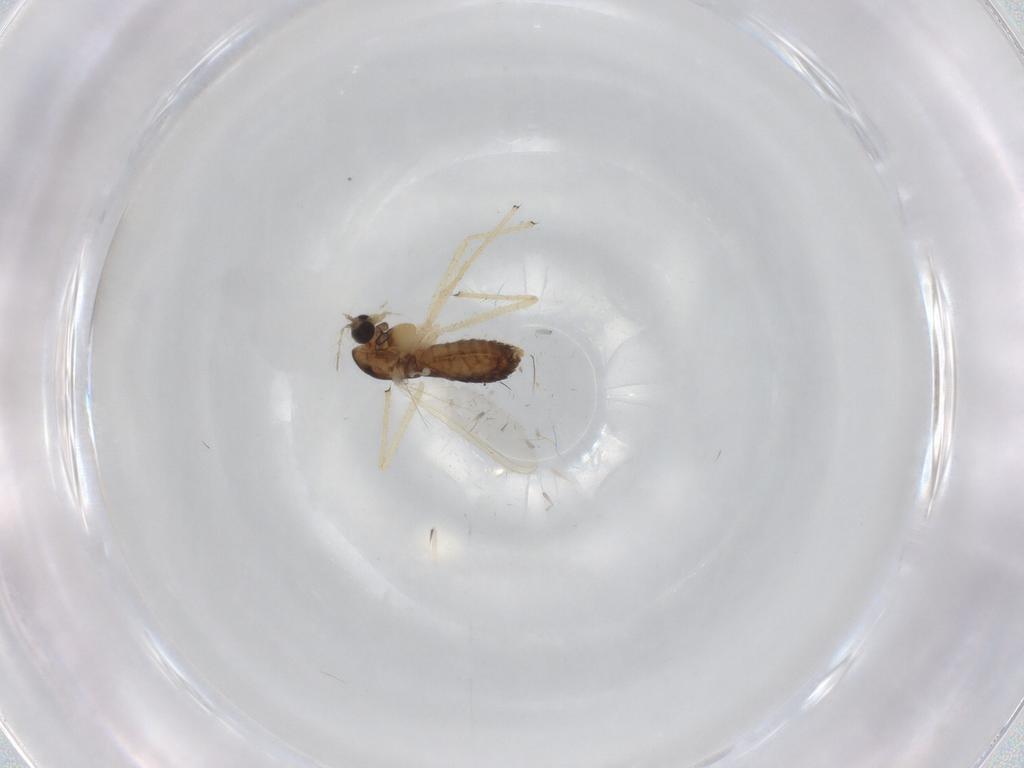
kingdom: Animalia
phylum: Arthropoda
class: Insecta
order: Diptera
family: Chironomidae
